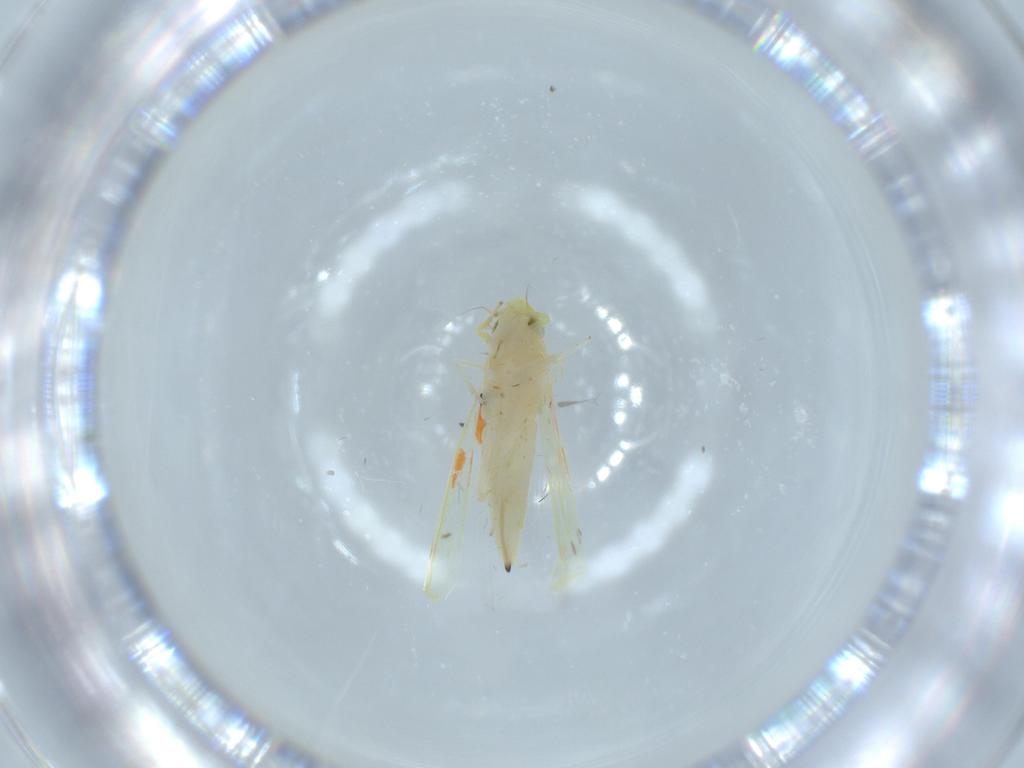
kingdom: Animalia
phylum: Arthropoda
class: Insecta
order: Hemiptera
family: Cicadellidae
